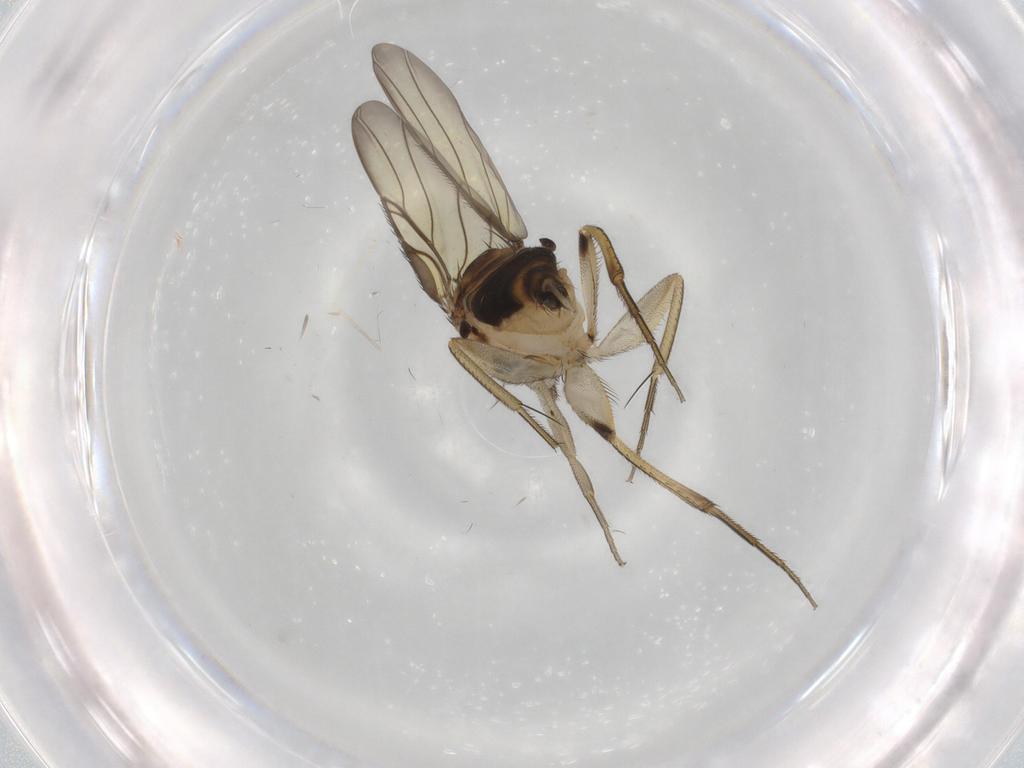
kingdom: Animalia
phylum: Arthropoda
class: Insecta
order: Diptera
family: Phoridae
